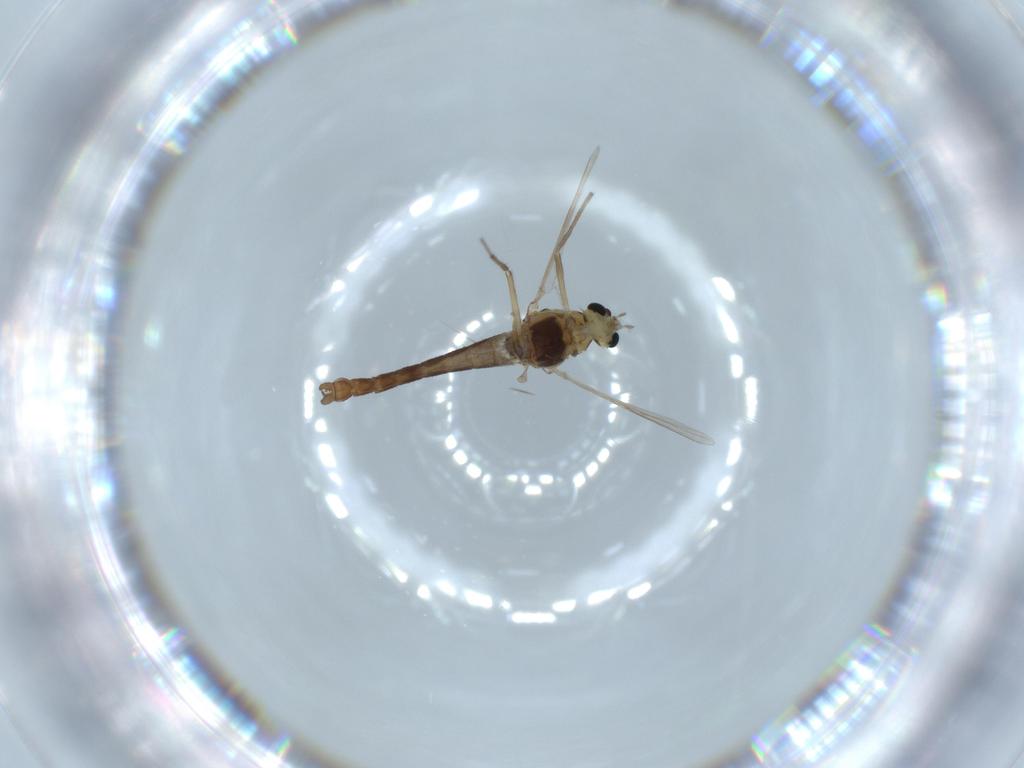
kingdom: Animalia
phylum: Arthropoda
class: Insecta
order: Diptera
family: Chironomidae
